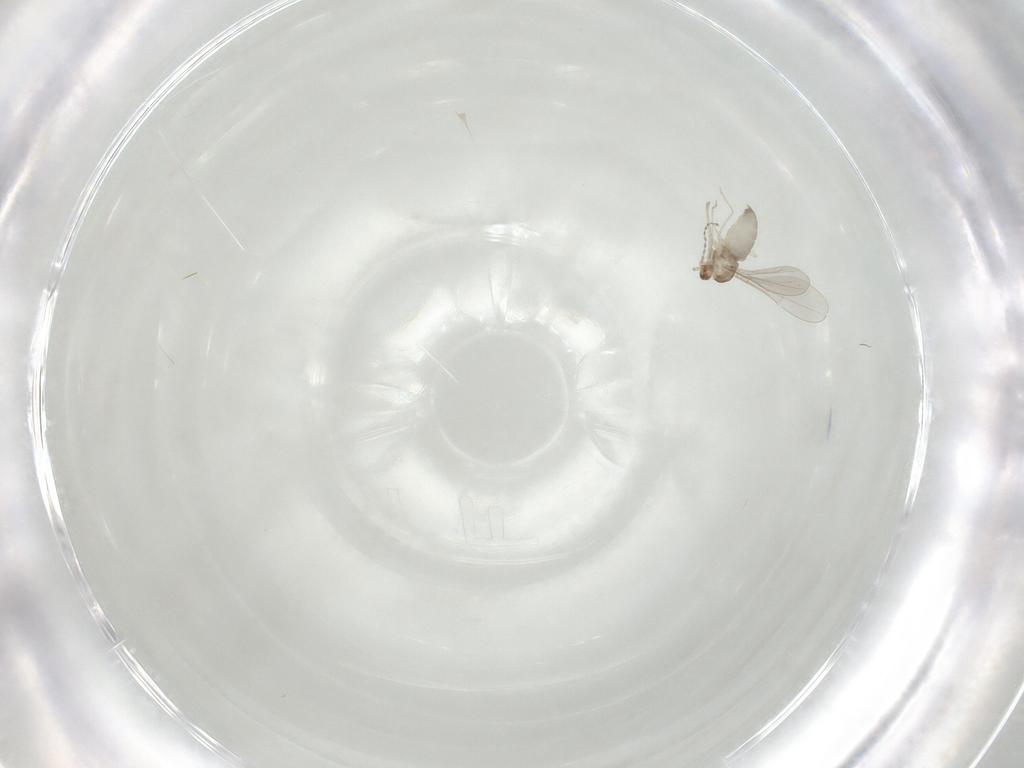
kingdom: Animalia
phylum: Arthropoda
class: Insecta
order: Diptera
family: Cecidomyiidae
